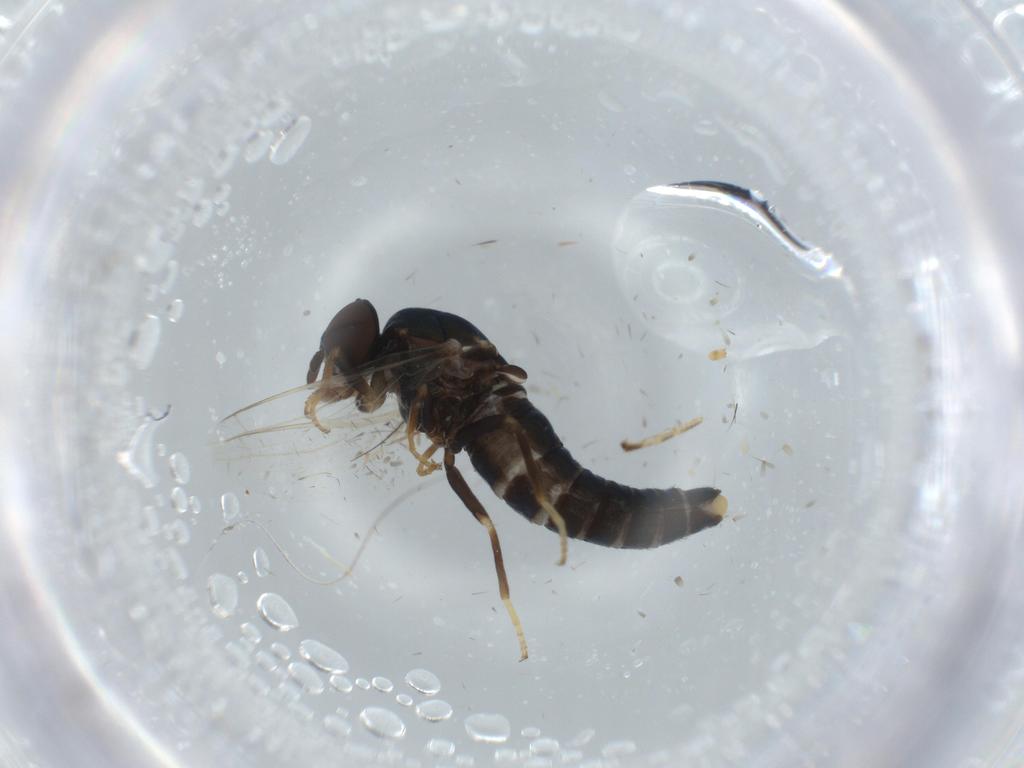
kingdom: Animalia
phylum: Arthropoda
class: Insecta
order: Diptera
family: Scenopinidae
